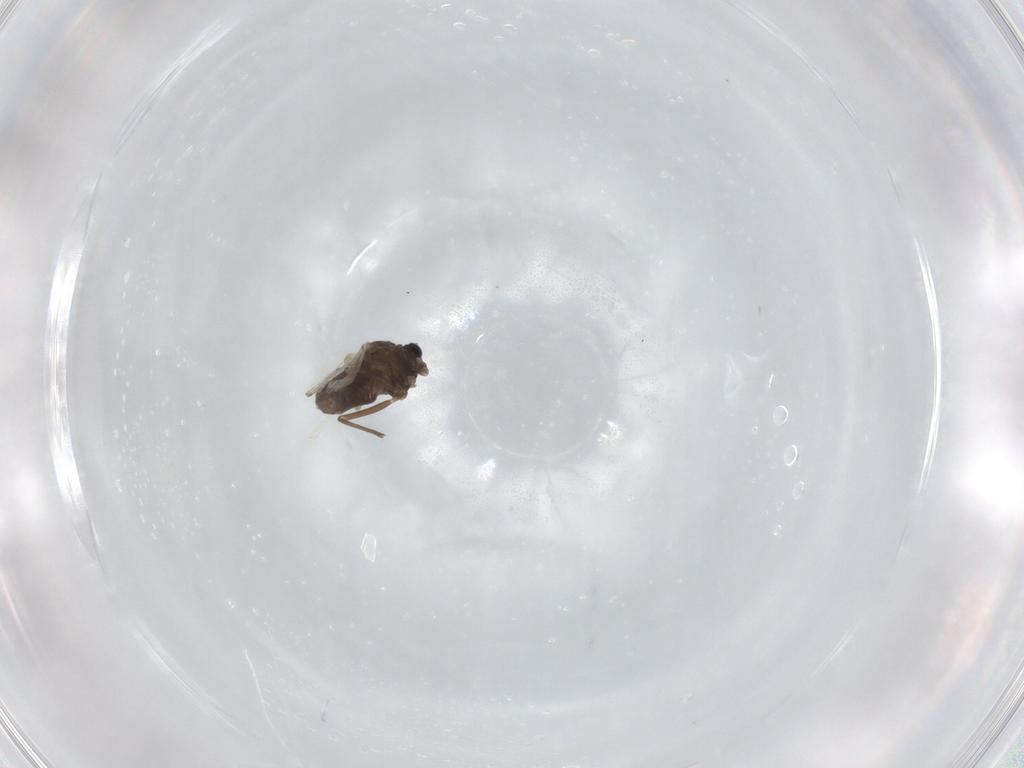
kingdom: Animalia
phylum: Arthropoda
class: Insecta
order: Diptera
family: Chironomidae
